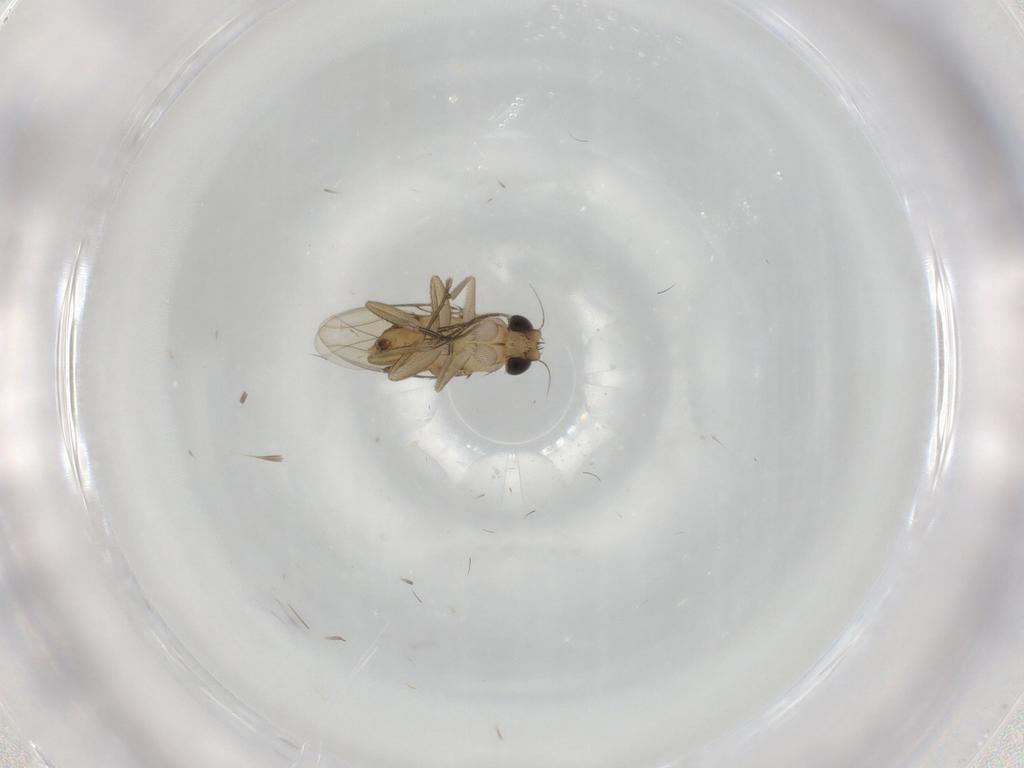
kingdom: Animalia
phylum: Arthropoda
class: Insecta
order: Diptera
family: Phoridae
